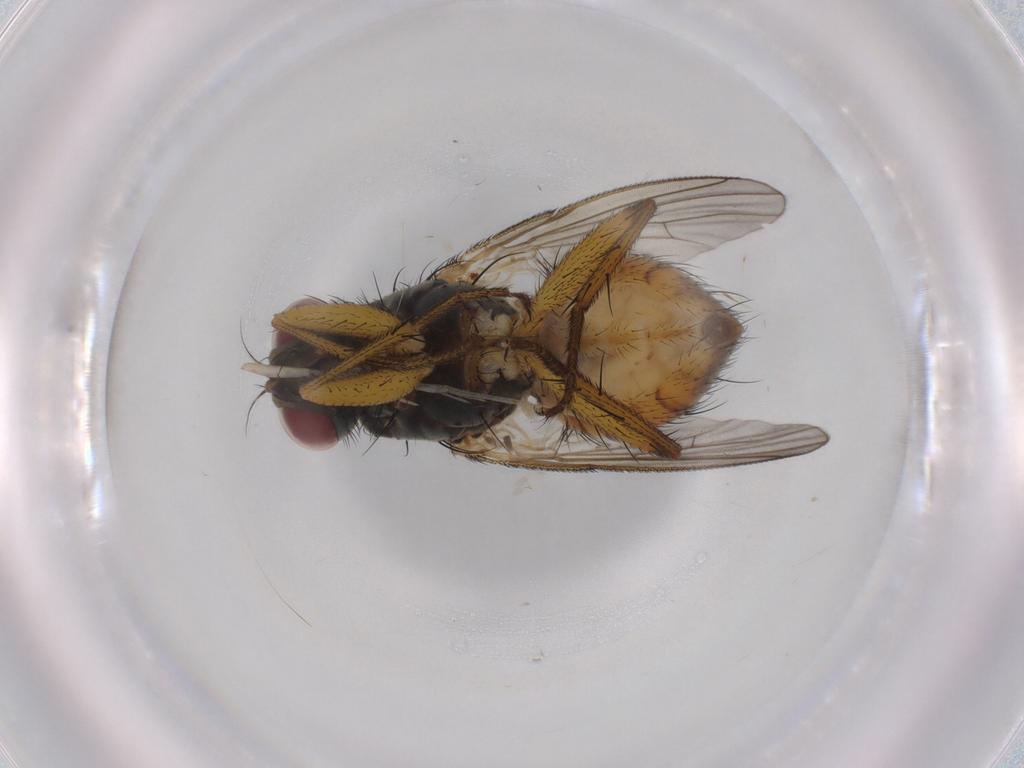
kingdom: Animalia
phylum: Arthropoda
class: Insecta
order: Diptera
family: Muscidae
